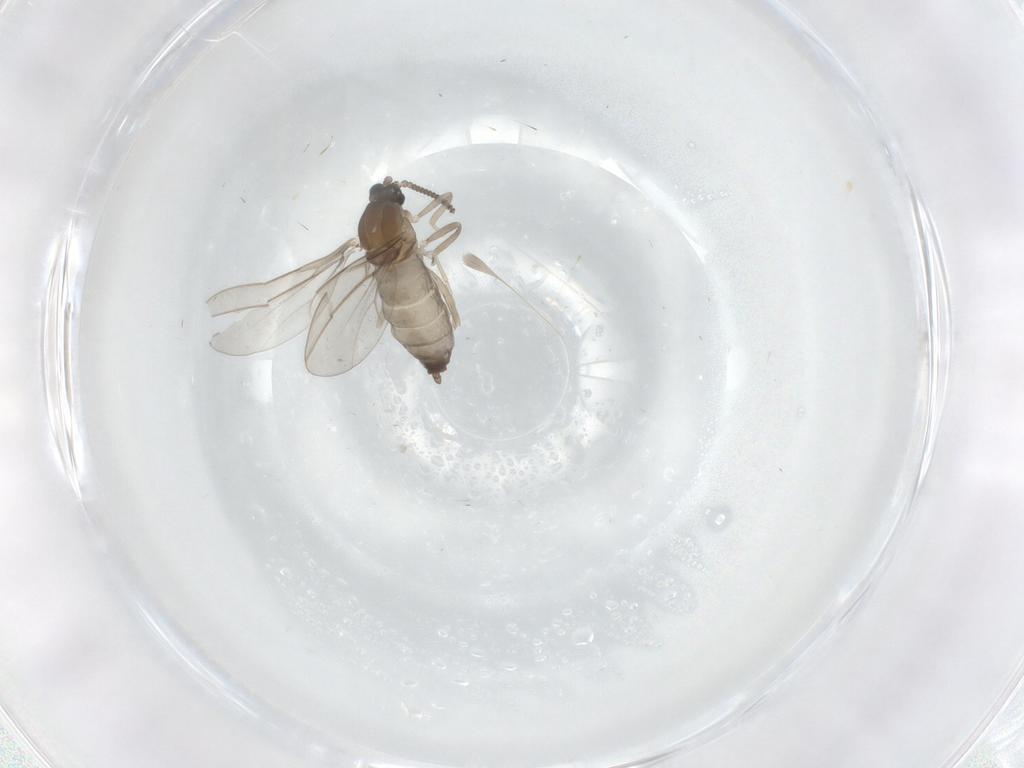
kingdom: Animalia
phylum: Arthropoda
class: Insecta
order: Diptera
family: Cecidomyiidae
